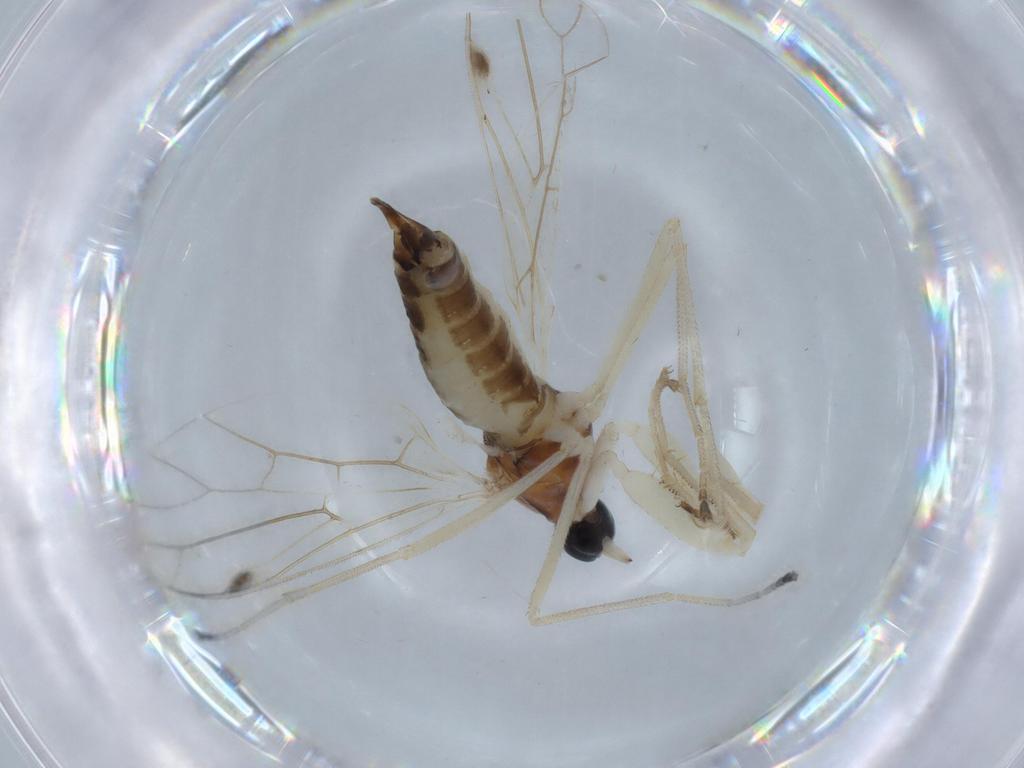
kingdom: Animalia
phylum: Arthropoda
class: Insecta
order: Diptera
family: Empididae
